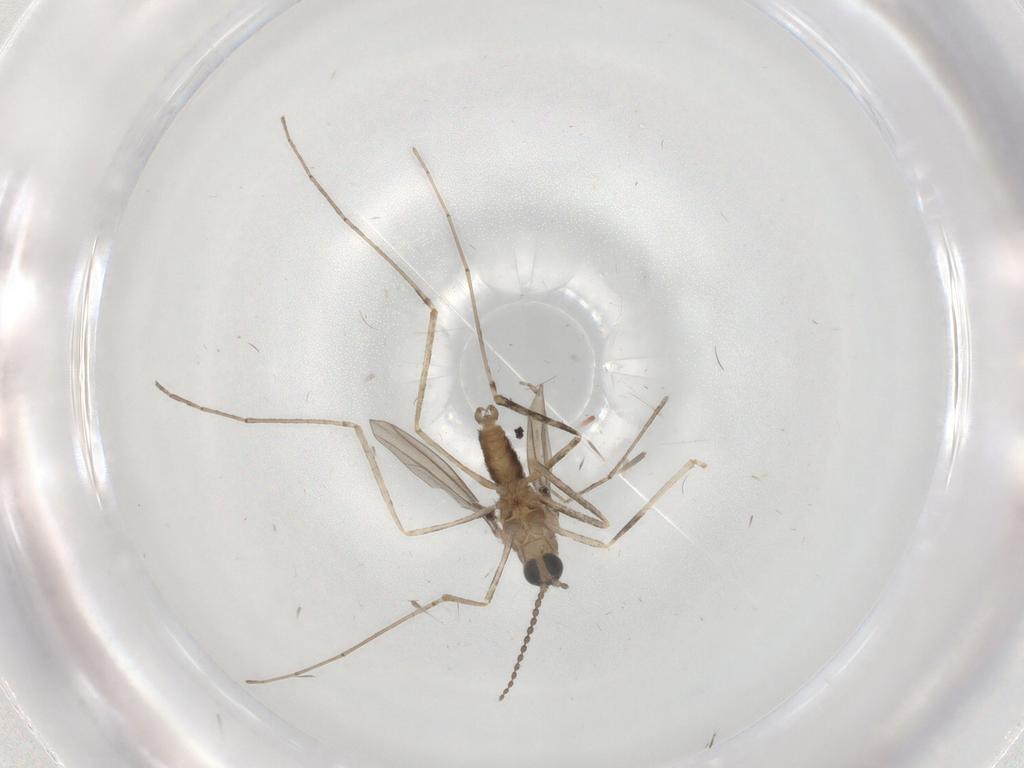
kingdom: Animalia
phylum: Arthropoda
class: Insecta
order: Diptera
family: Cecidomyiidae
